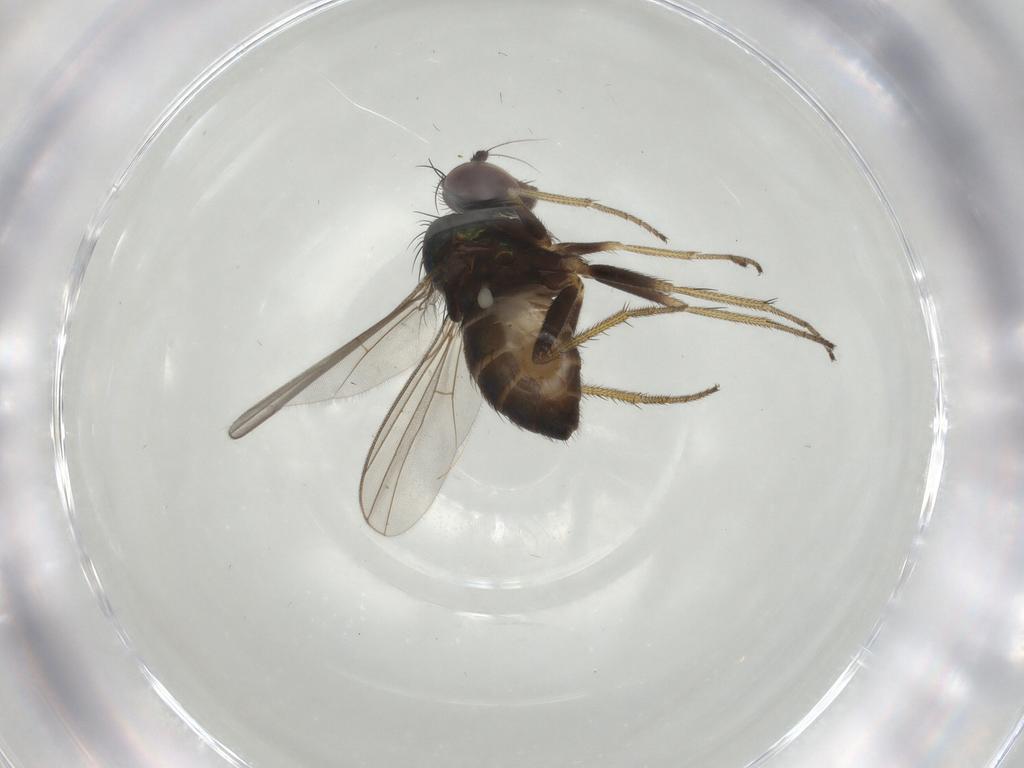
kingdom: Animalia
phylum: Arthropoda
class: Insecta
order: Diptera
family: Dolichopodidae
